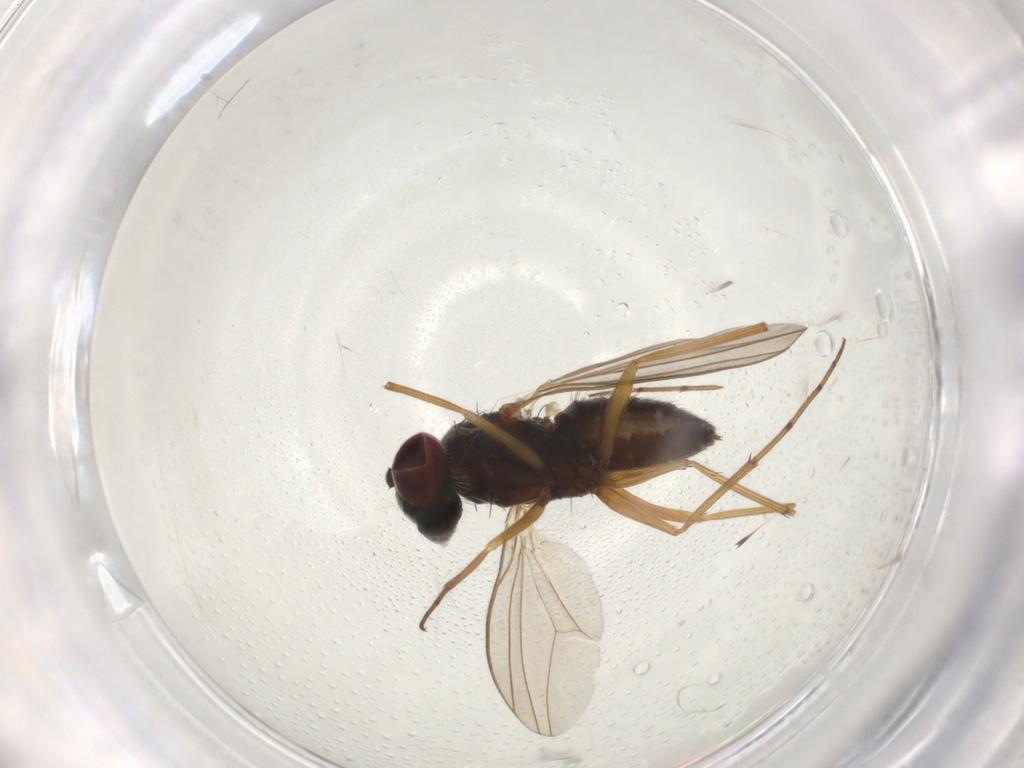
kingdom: Animalia
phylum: Arthropoda
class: Insecta
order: Diptera
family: Dolichopodidae
